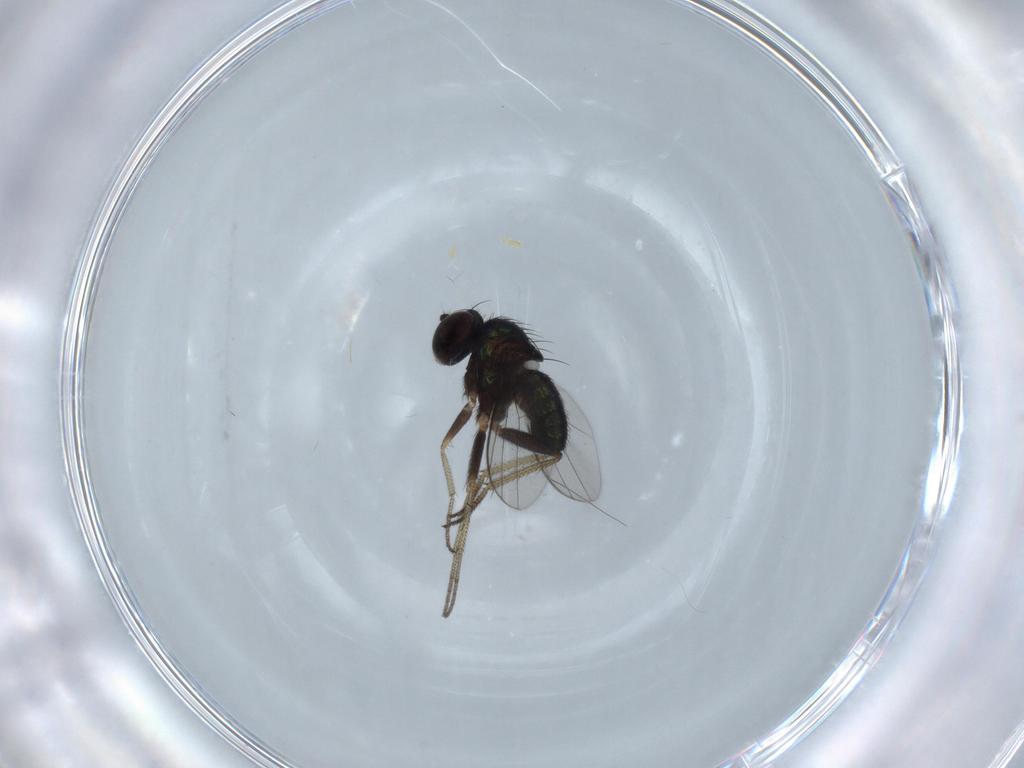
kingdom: Animalia
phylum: Arthropoda
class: Insecta
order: Diptera
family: Dolichopodidae
